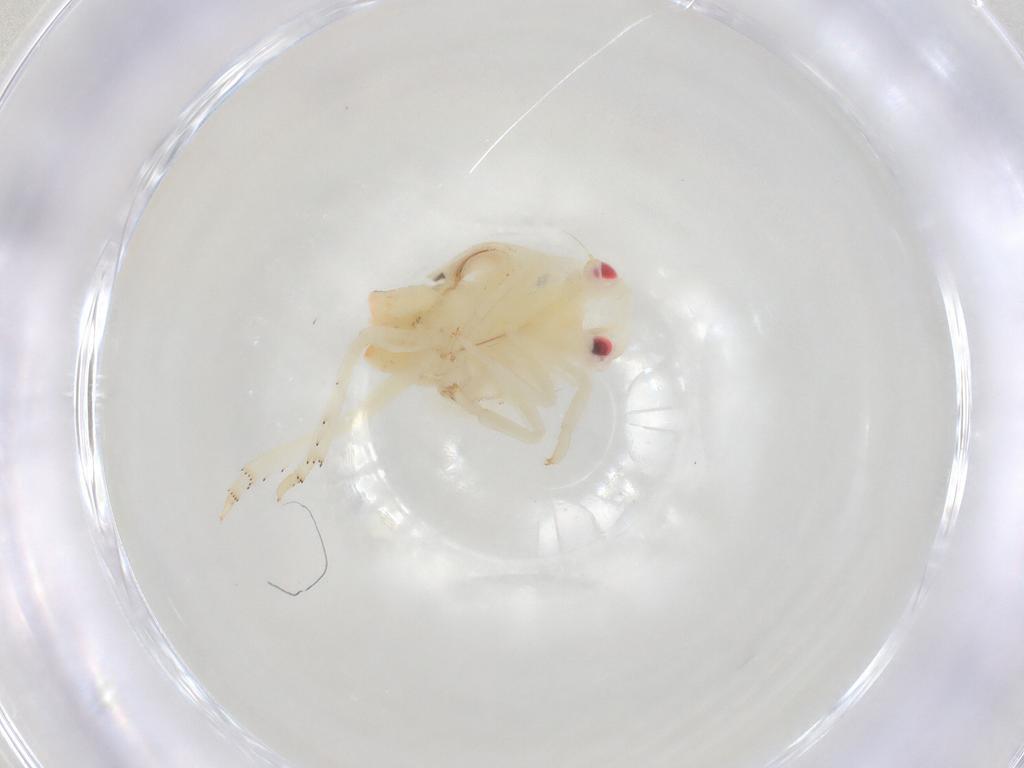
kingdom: Animalia
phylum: Arthropoda
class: Insecta
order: Hemiptera
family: Flatidae
